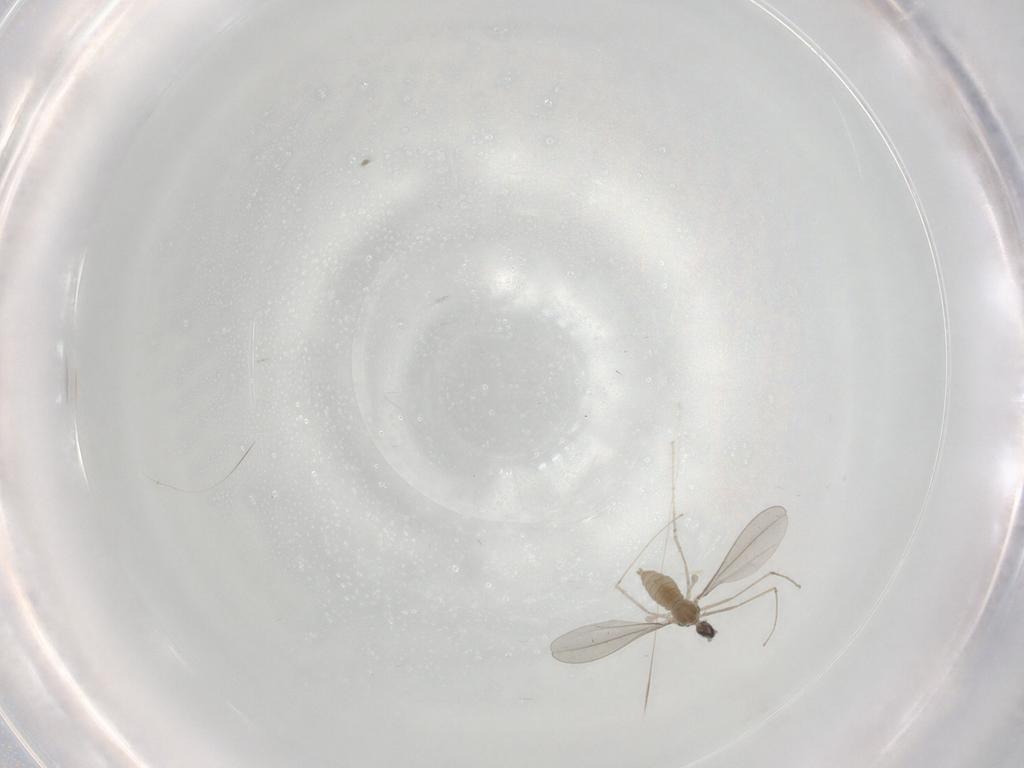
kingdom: Animalia
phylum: Arthropoda
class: Insecta
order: Diptera
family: Cecidomyiidae
